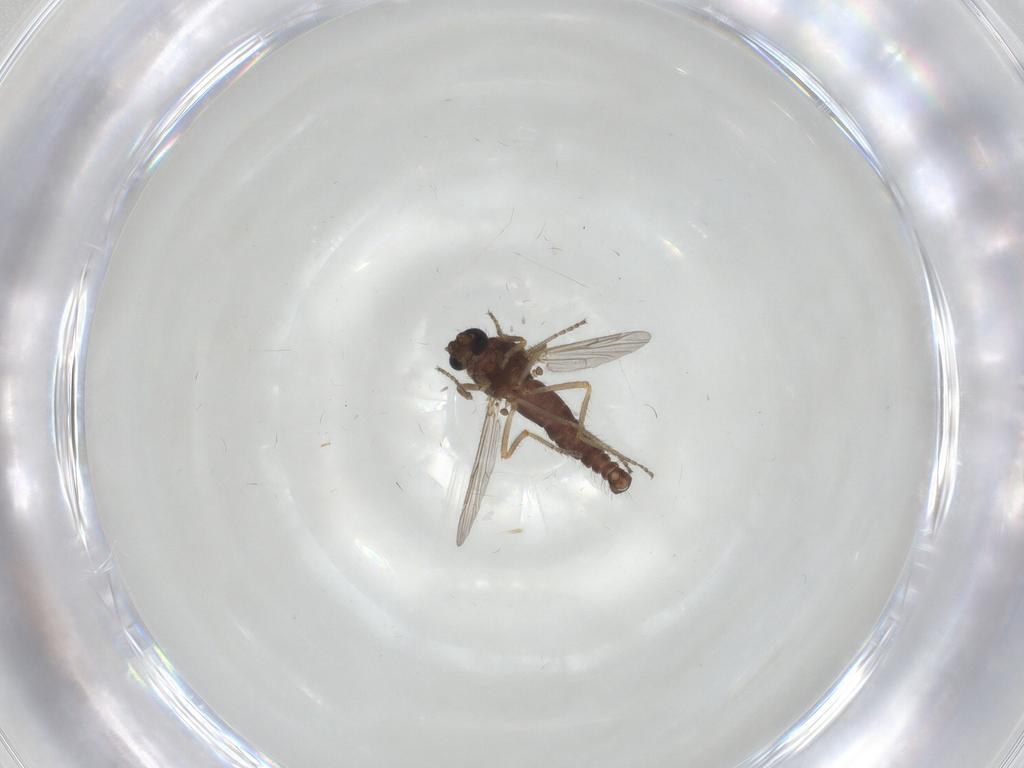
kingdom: Animalia
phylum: Arthropoda
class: Insecta
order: Diptera
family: Ceratopogonidae
